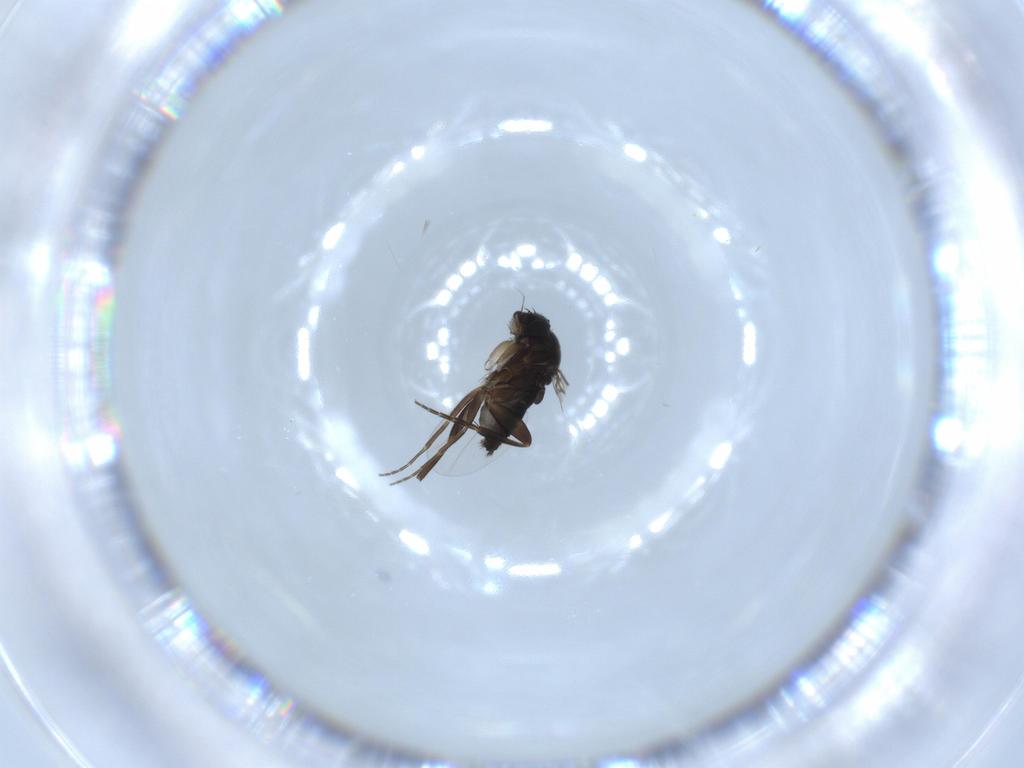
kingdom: Animalia
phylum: Arthropoda
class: Insecta
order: Diptera
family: Phoridae
